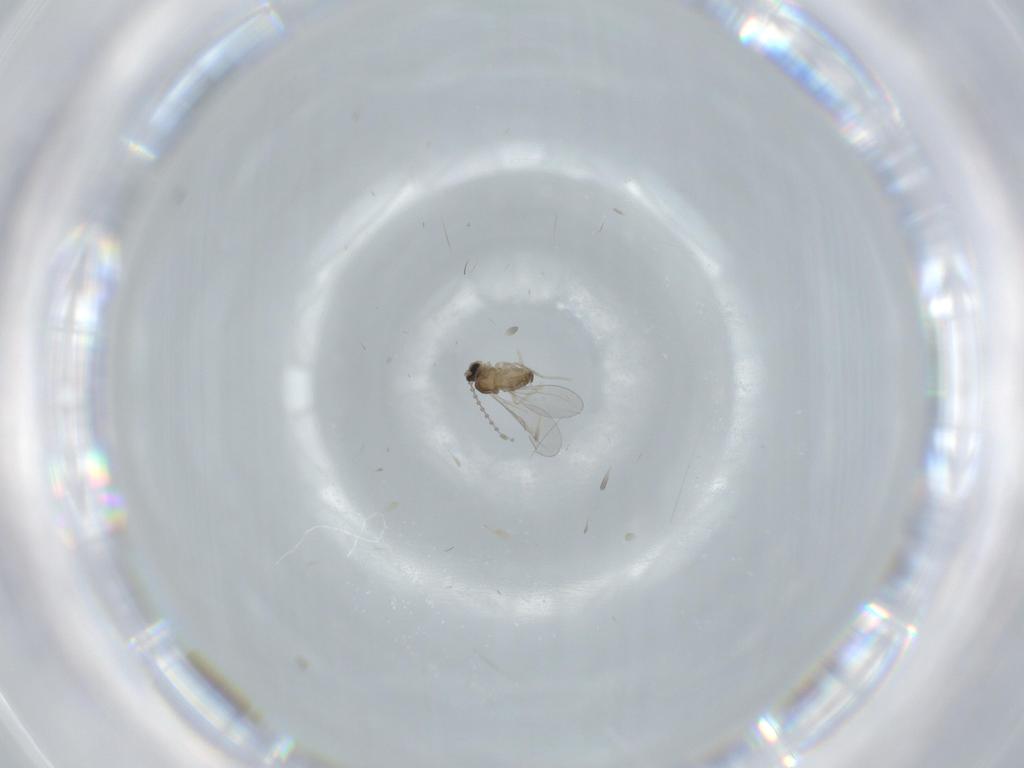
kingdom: Animalia
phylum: Arthropoda
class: Insecta
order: Diptera
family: Cecidomyiidae
